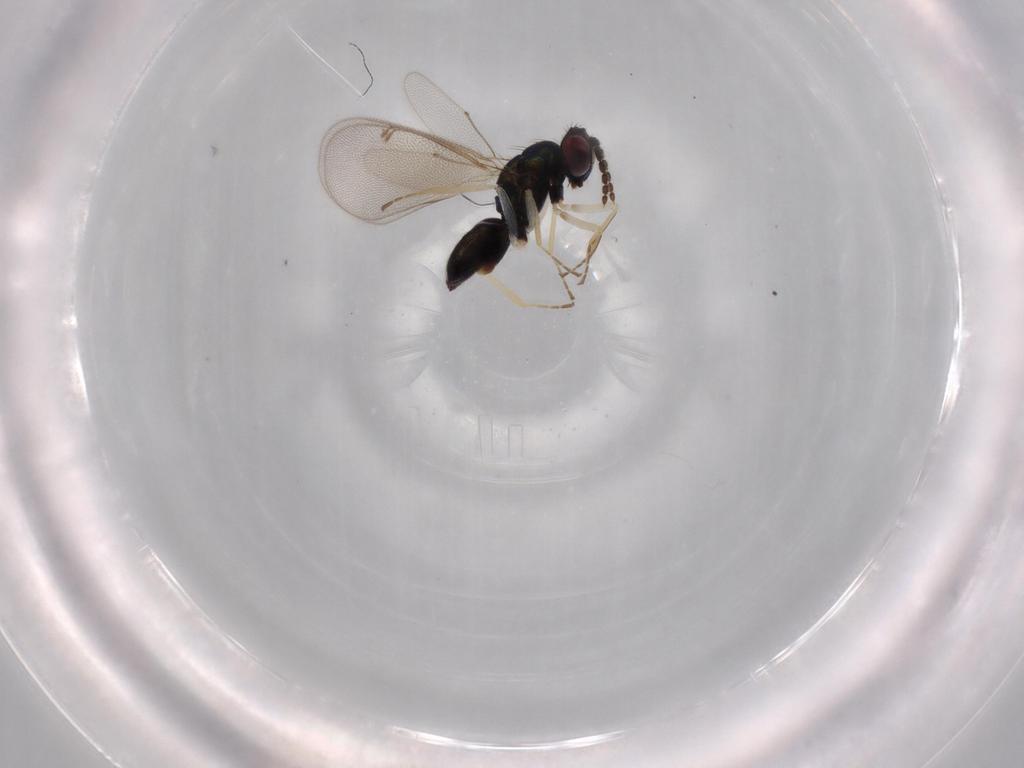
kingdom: Animalia
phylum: Arthropoda
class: Insecta
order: Hymenoptera
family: Eulophidae
